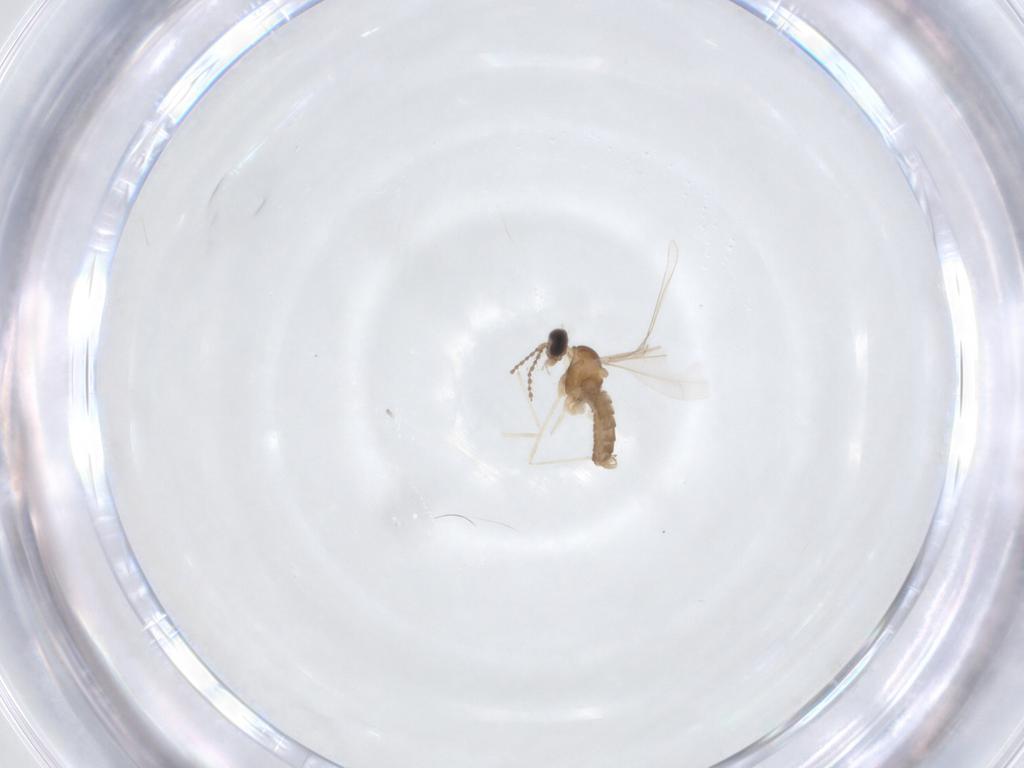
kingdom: Animalia
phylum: Arthropoda
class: Insecta
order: Diptera
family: Cecidomyiidae
